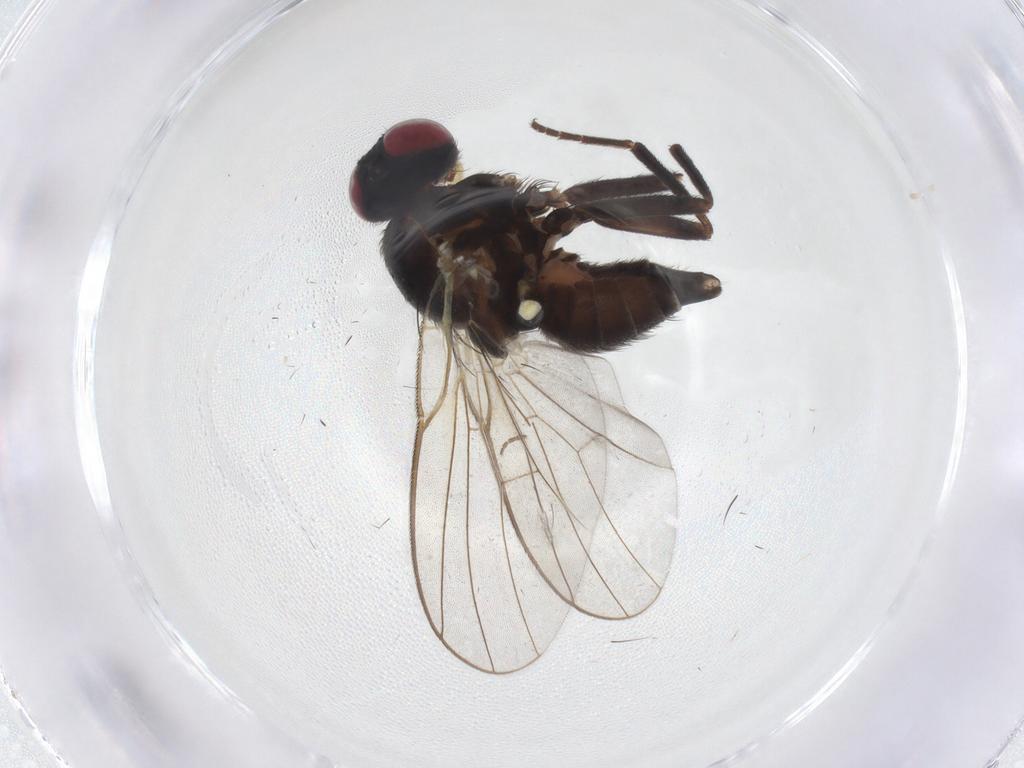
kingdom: Animalia
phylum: Arthropoda
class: Insecta
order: Diptera
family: Agromyzidae
